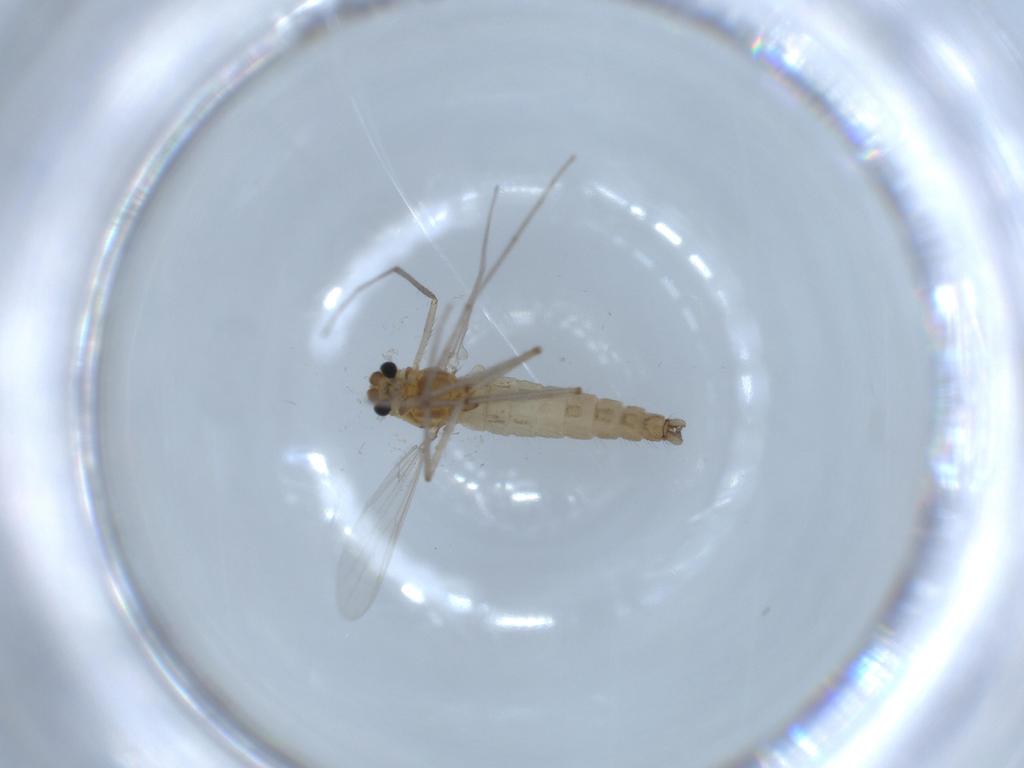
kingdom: Animalia
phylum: Arthropoda
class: Insecta
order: Diptera
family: Chironomidae
